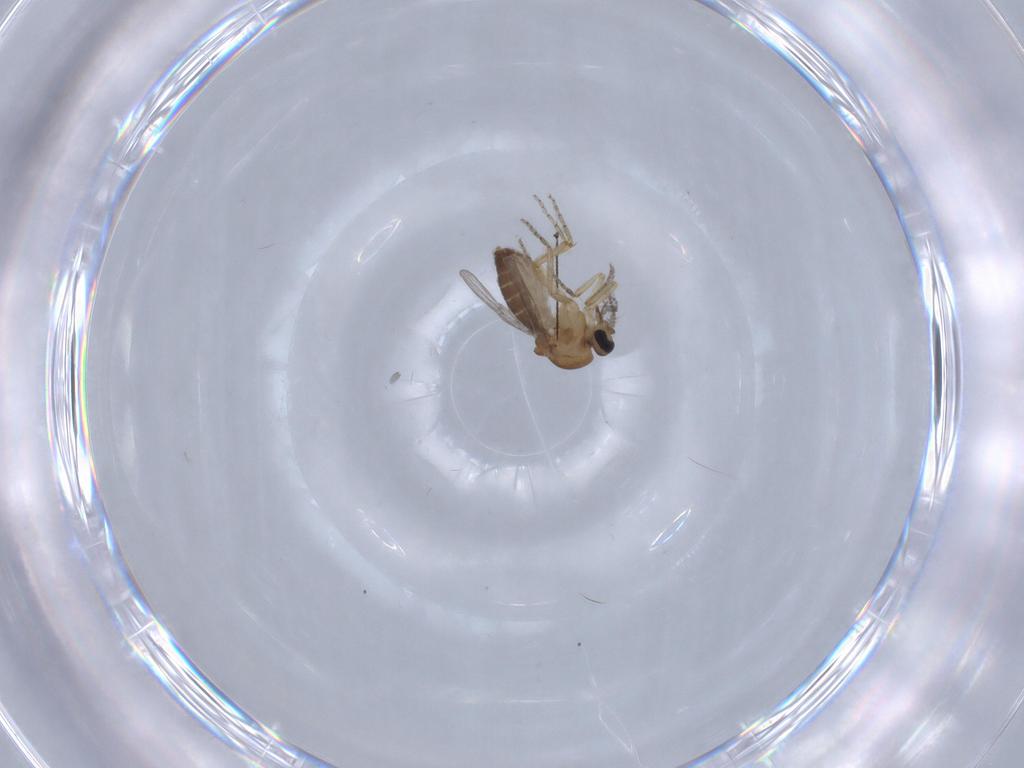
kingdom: Animalia
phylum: Arthropoda
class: Insecta
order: Diptera
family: Ceratopogonidae
